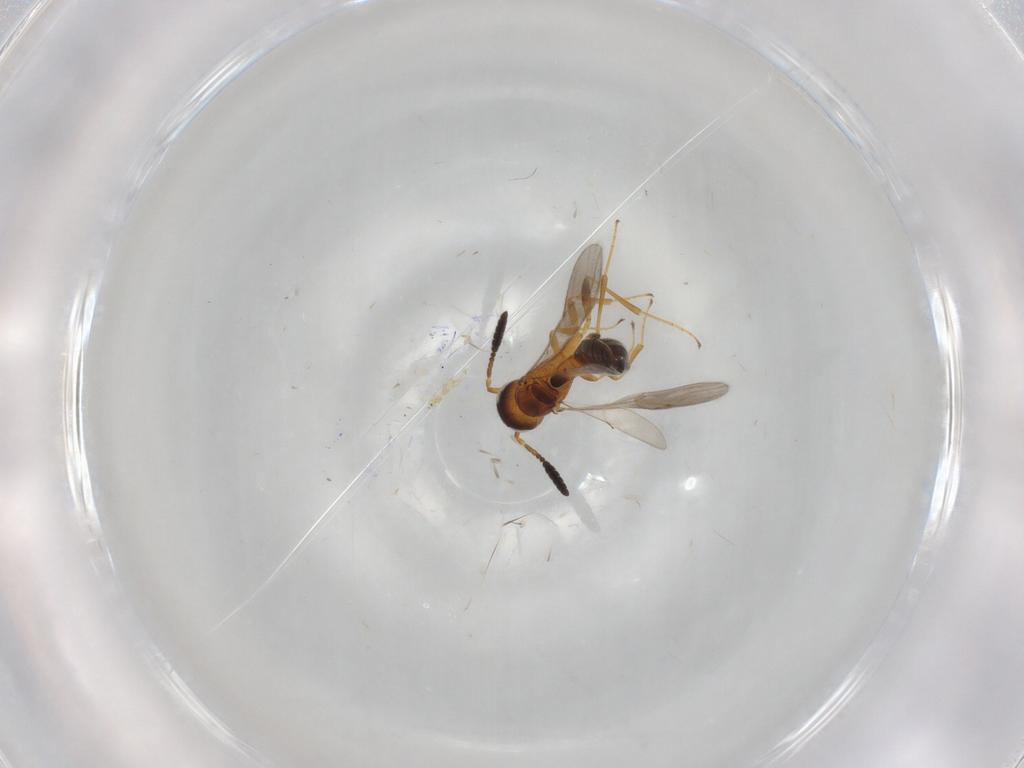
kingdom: Animalia
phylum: Arthropoda
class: Insecta
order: Hymenoptera
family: Scelionidae
